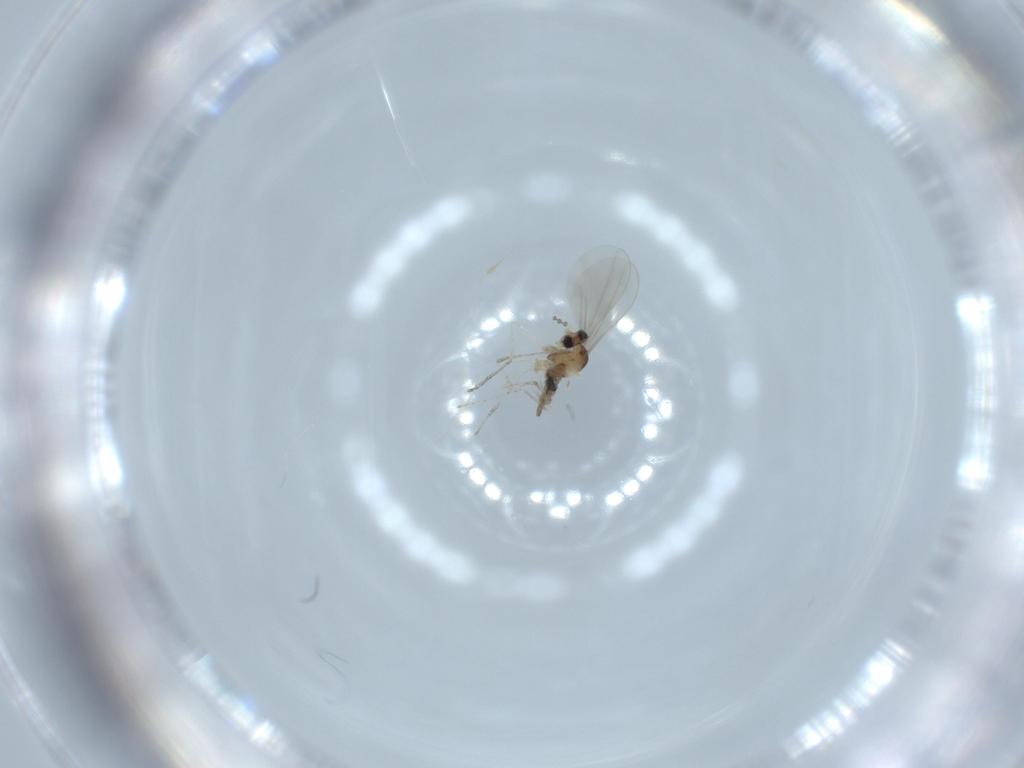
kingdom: Animalia
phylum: Arthropoda
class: Insecta
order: Diptera
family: Cecidomyiidae
